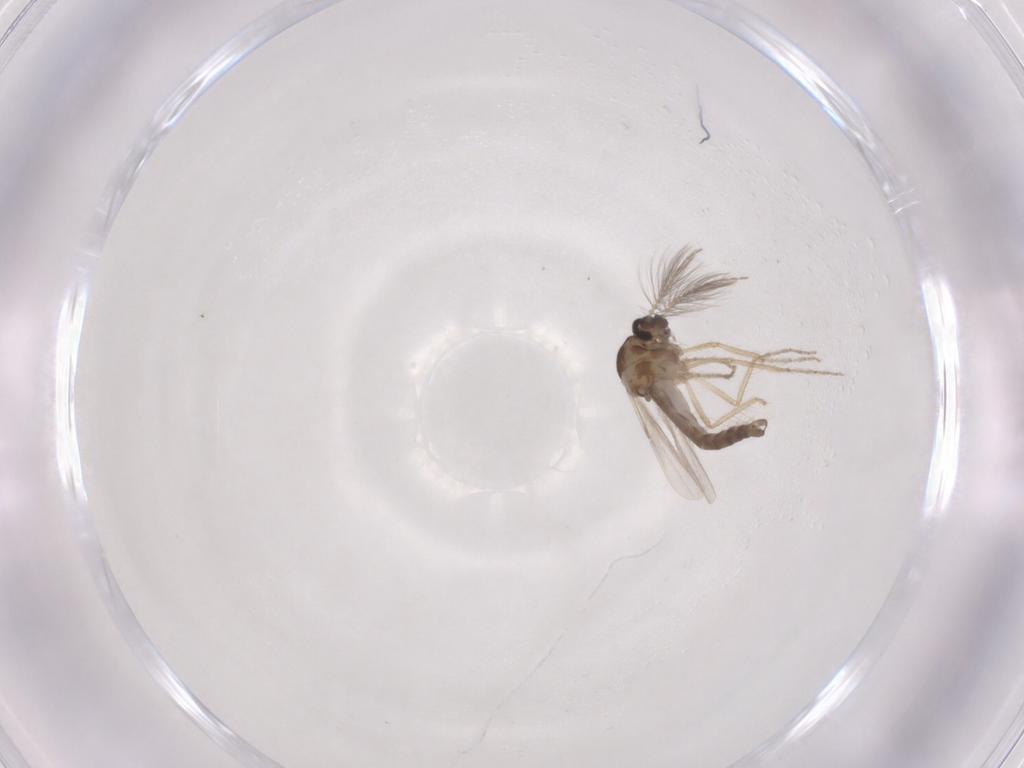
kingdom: Animalia
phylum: Arthropoda
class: Insecta
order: Diptera
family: Ceratopogonidae
